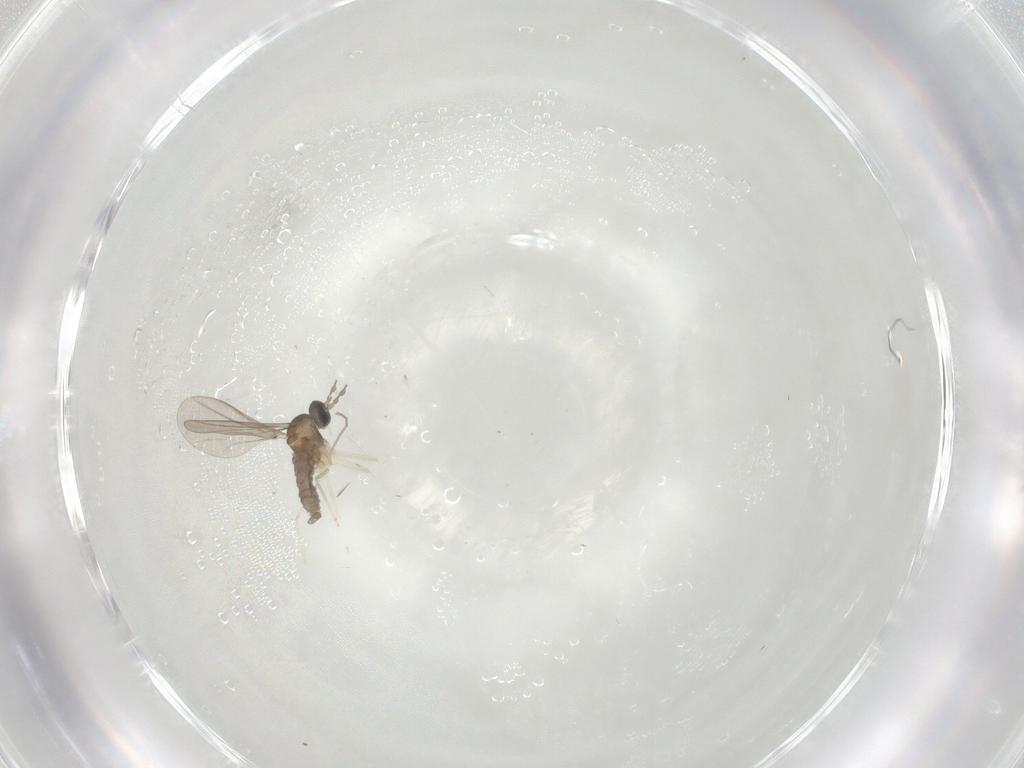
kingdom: Animalia
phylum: Arthropoda
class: Insecta
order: Diptera
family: Cecidomyiidae
